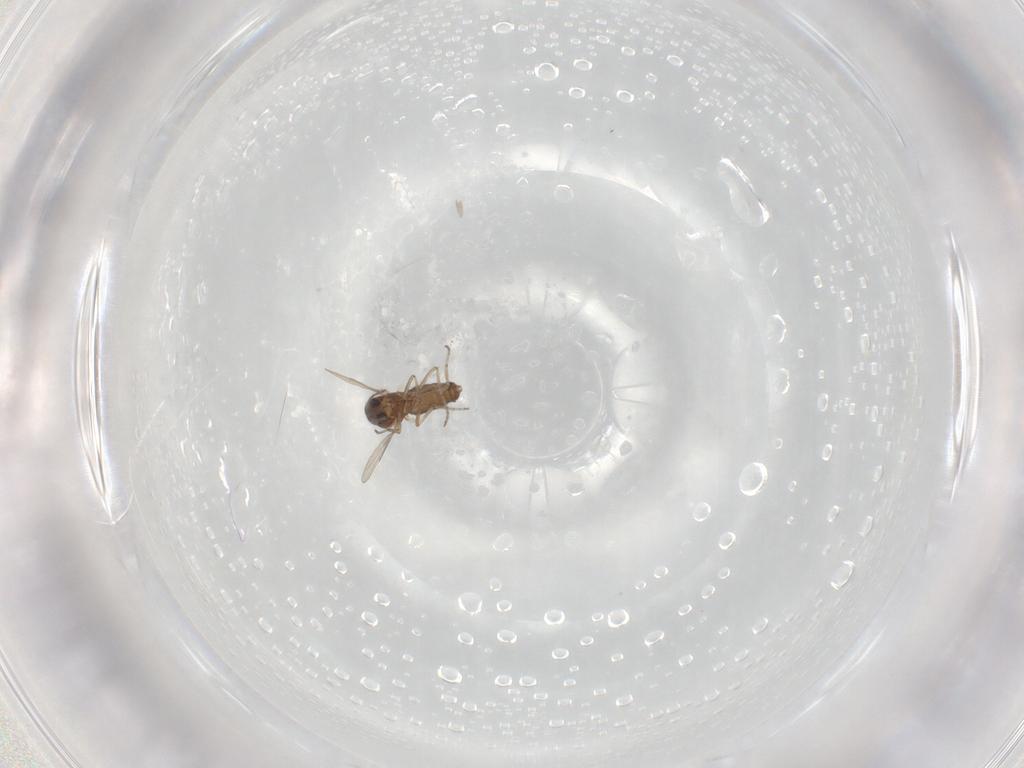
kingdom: Animalia
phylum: Arthropoda
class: Insecta
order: Diptera
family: Ceratopogonidae
